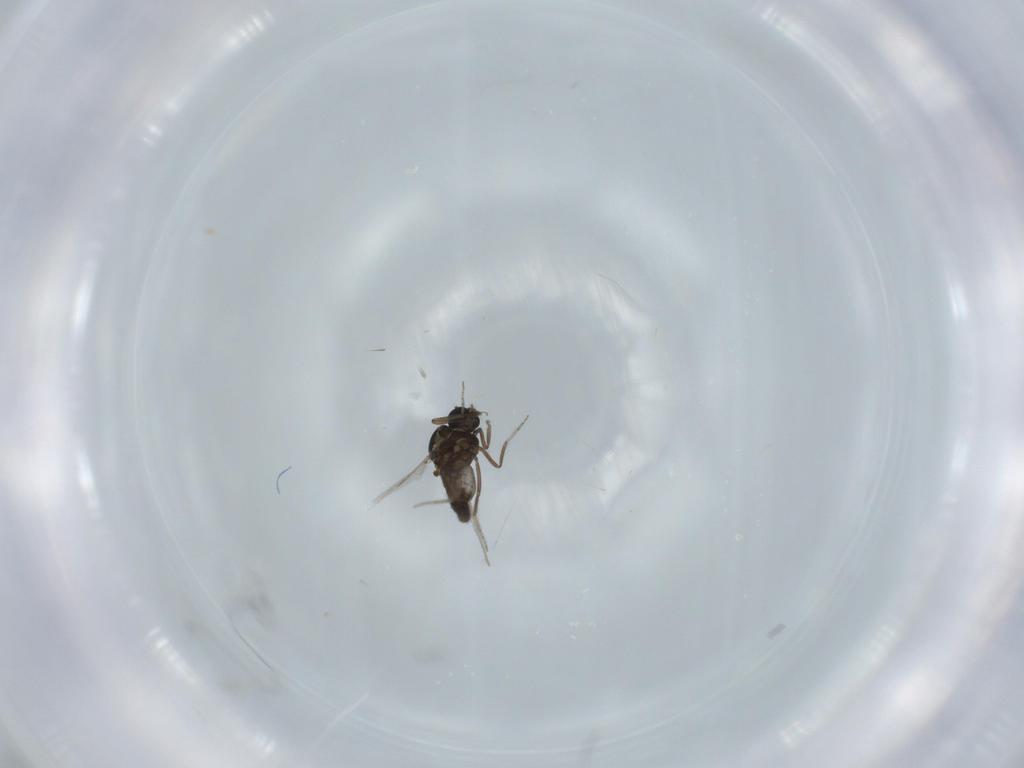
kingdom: Animalia
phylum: Arthropoda
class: Insecta
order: Diptera
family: Ceratopogonidae
